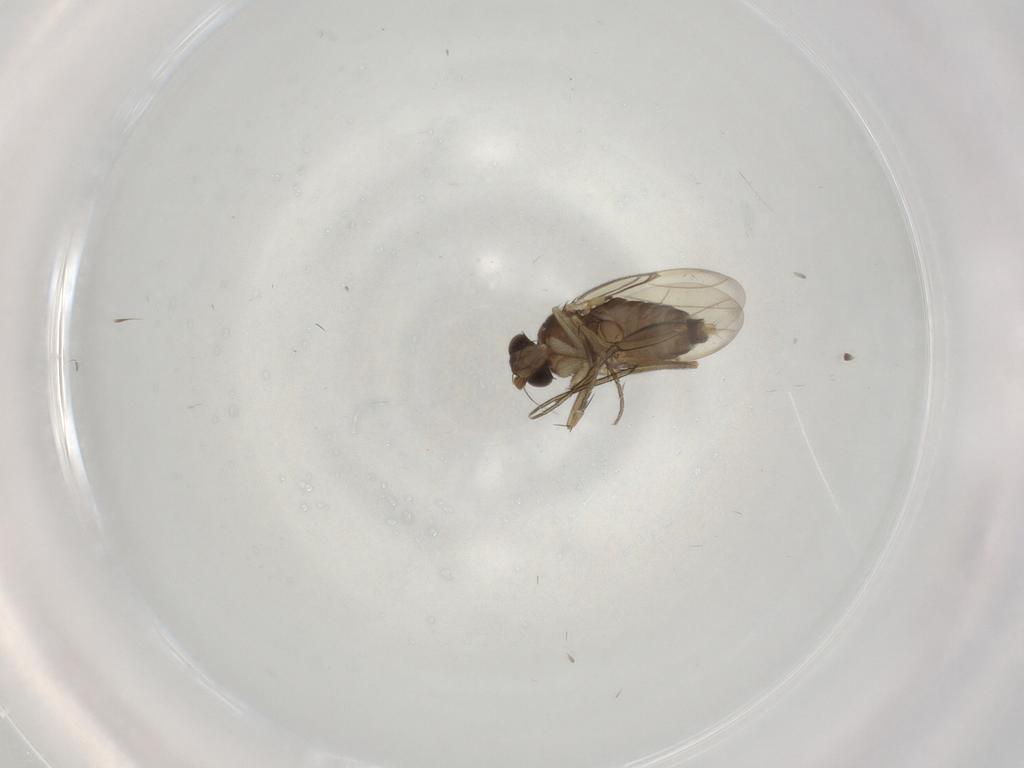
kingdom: Animalia
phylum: Arthropoda
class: Insecta
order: Diptera
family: Phoridae
